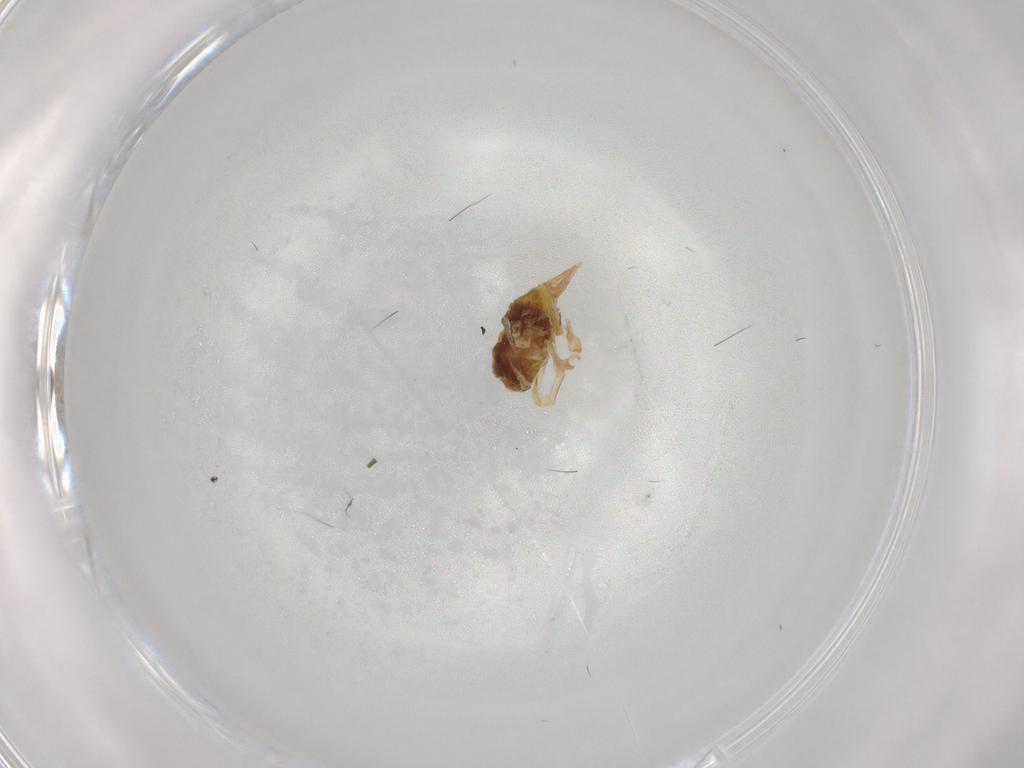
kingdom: Animalia
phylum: Arthropoda
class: Arachnida
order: Trombidiformes
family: Bdellidae
